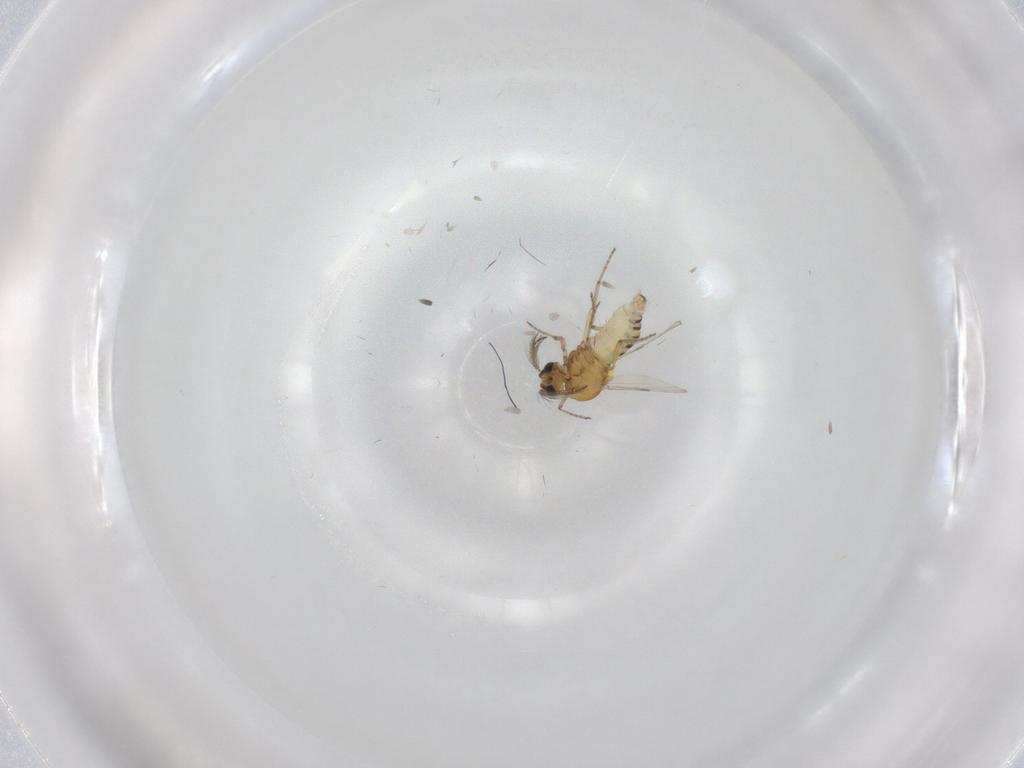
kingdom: Animalia
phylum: Arthropoda
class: Insecta
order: Diptera
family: Ceratopogonidae
